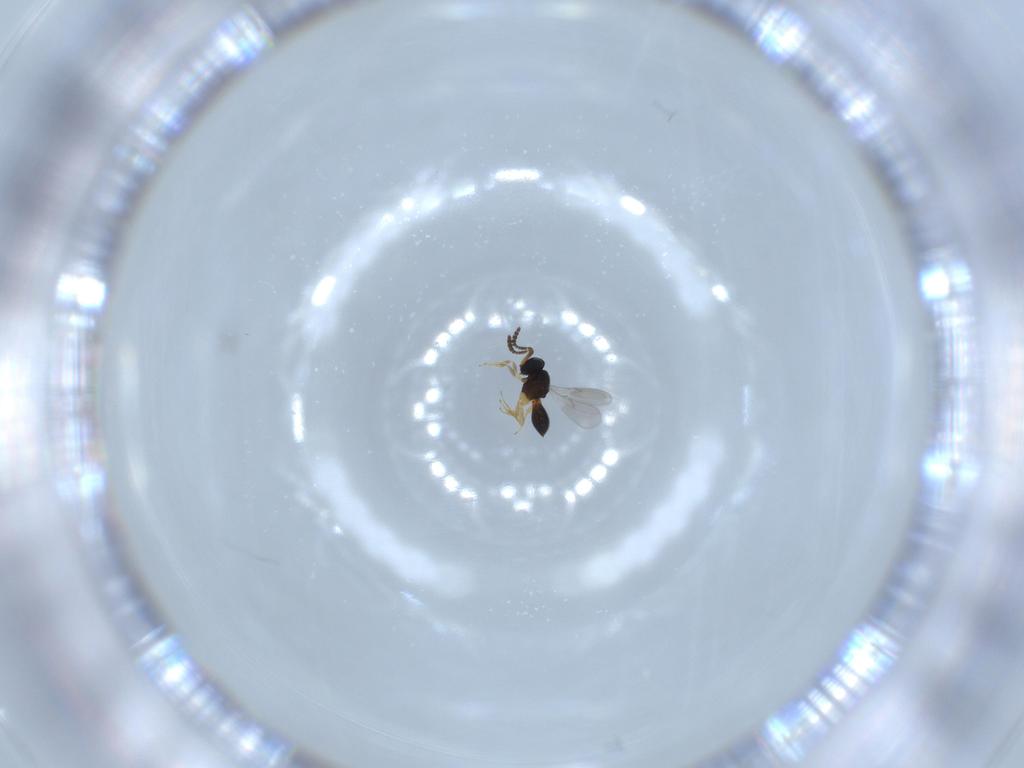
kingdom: Animalia
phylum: Arthropoda
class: Insecta
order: Hymenoptera
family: Scelionidae
